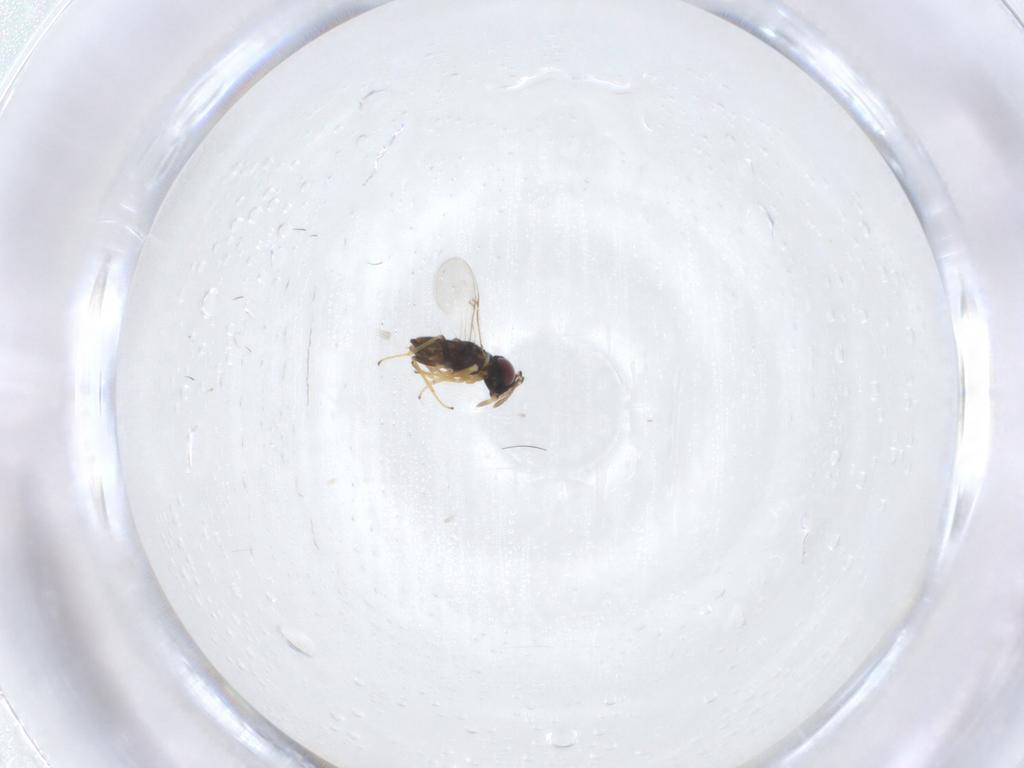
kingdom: Animalia
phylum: Arthropoda
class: Insecta
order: Hymenoptera
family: Encyrtidae
